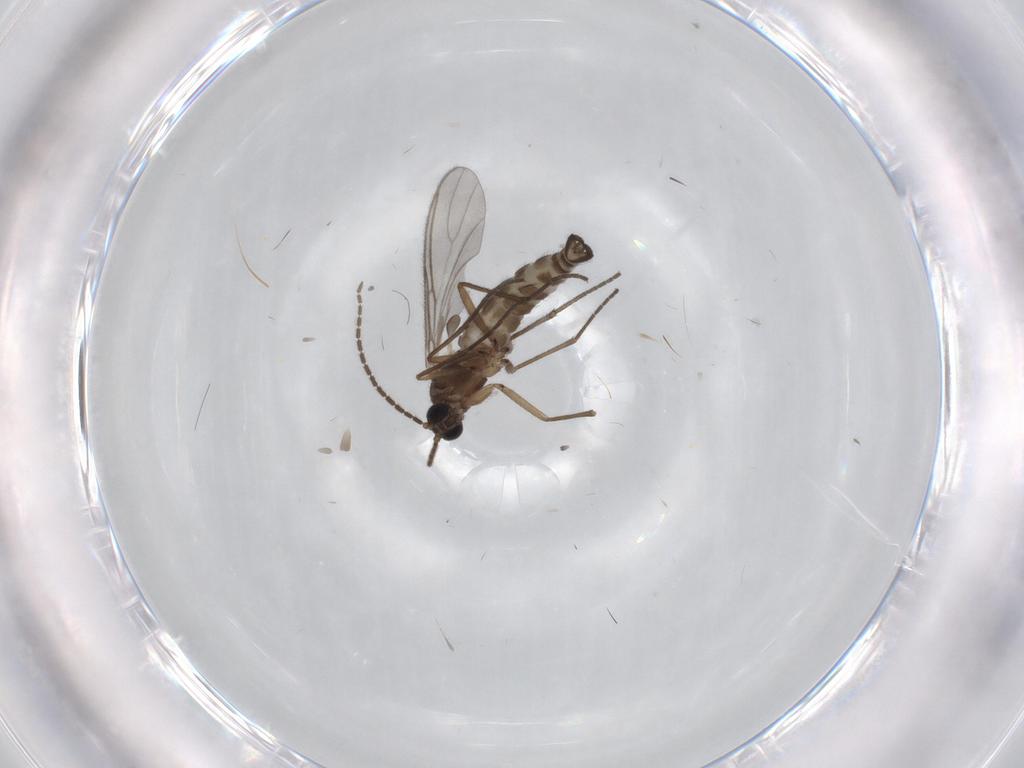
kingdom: Animalia
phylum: Arthropoda
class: Insecta
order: Diptera
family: Sciaridae
